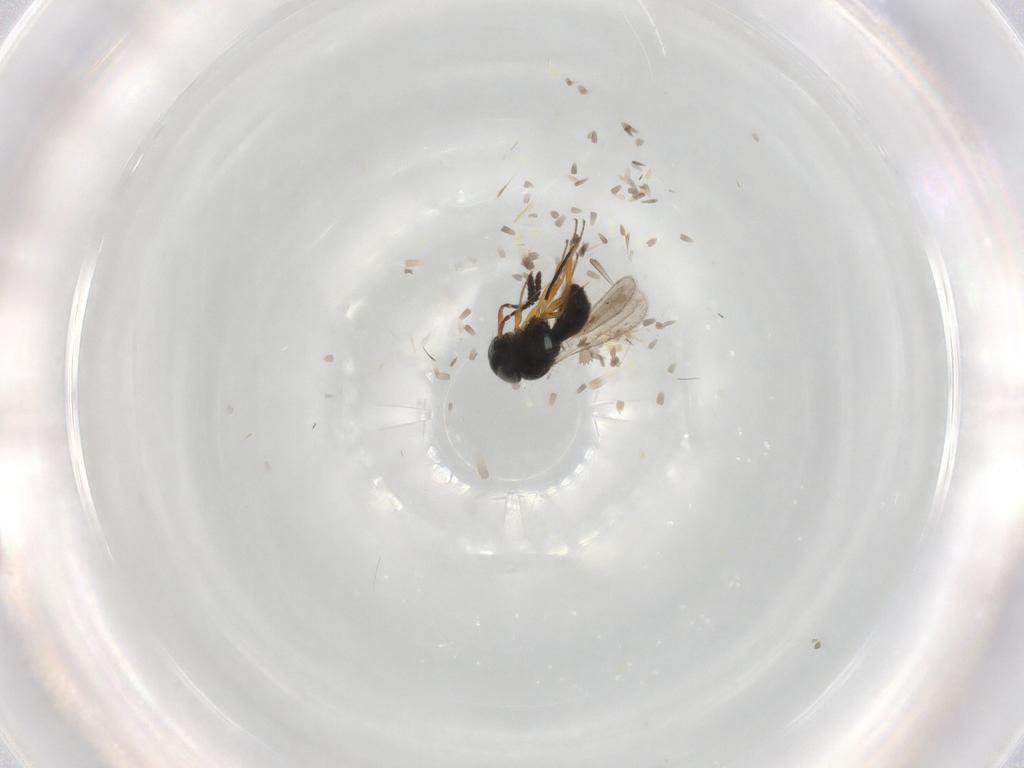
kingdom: Animalia
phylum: Arthropoda
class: Insecta
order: Hymenoptera
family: Scelionidae
